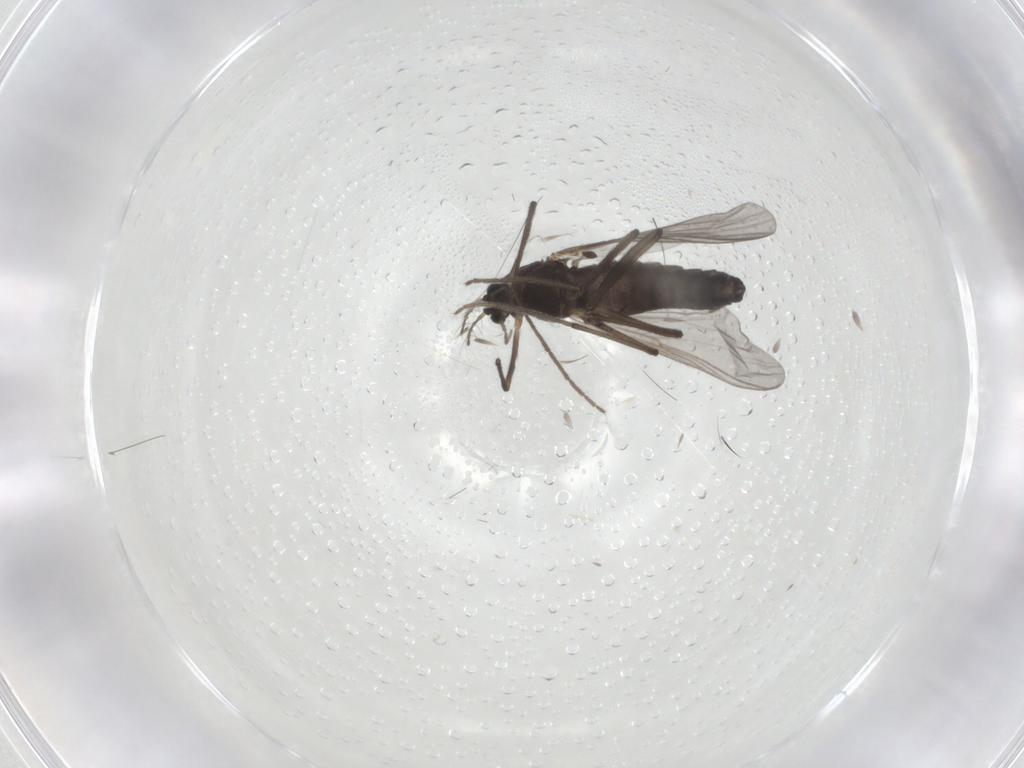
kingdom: Animalia
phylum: Arthropoda
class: Insecta
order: Diptera
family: Chironomidae
